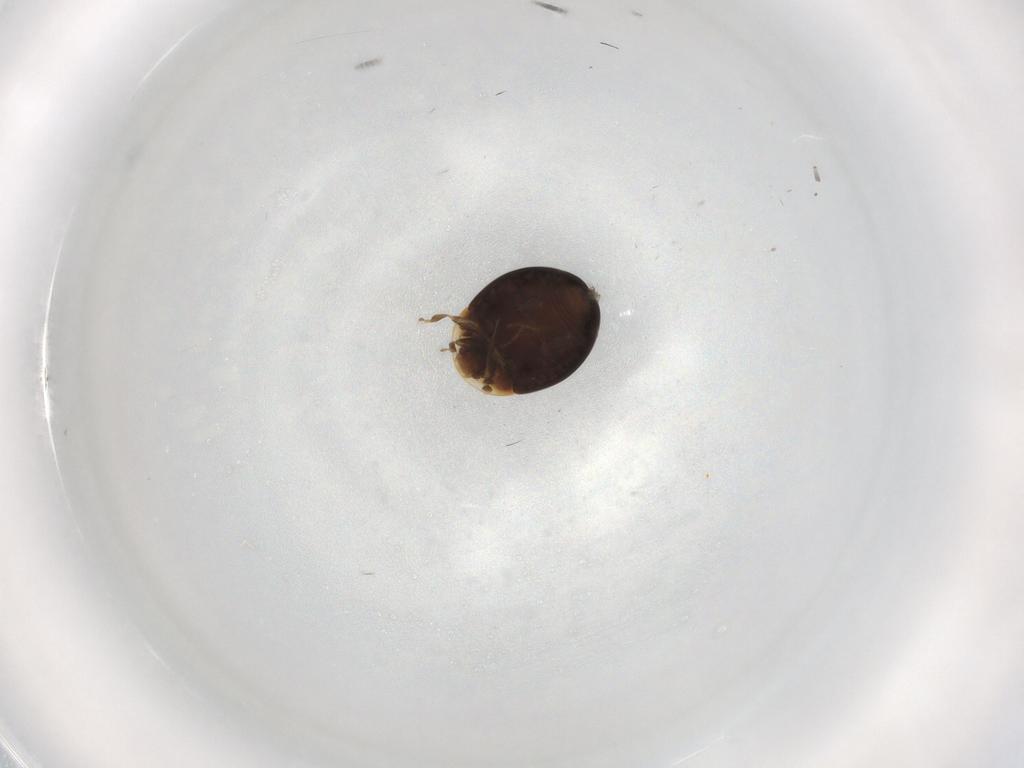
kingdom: Animalia
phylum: Arthropoda
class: Insecta
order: Coleoptera
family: Corylophidae
